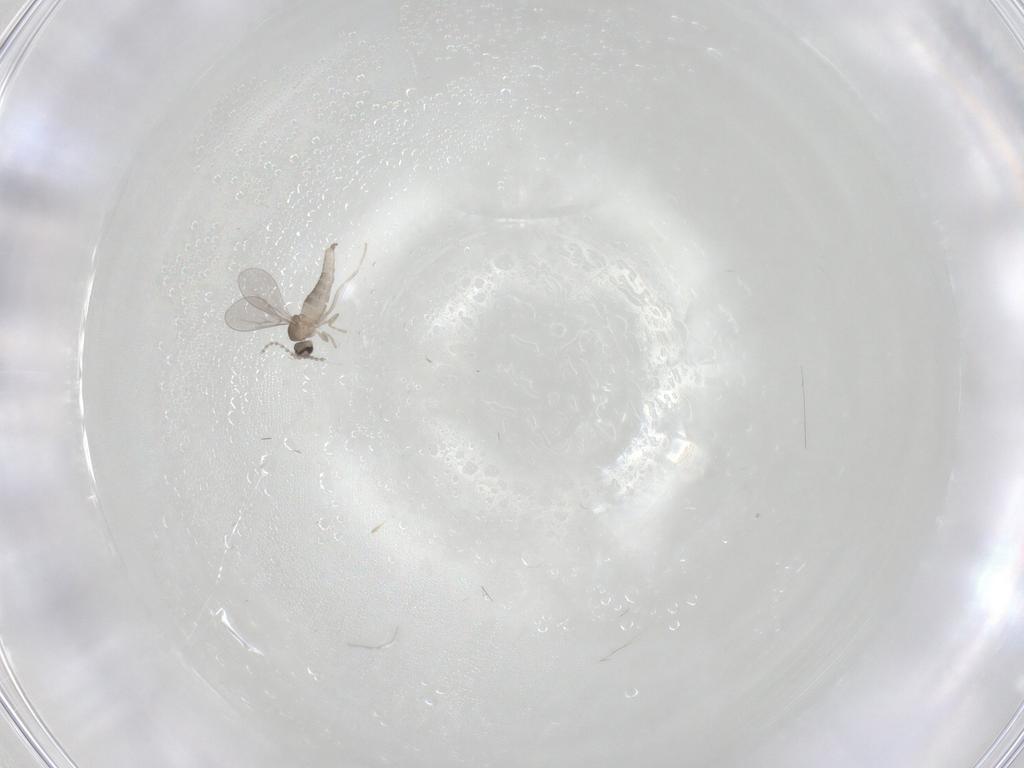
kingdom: Animalia
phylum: Arthropoda
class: Insecta
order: Diptera
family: Cecidomyiidae
